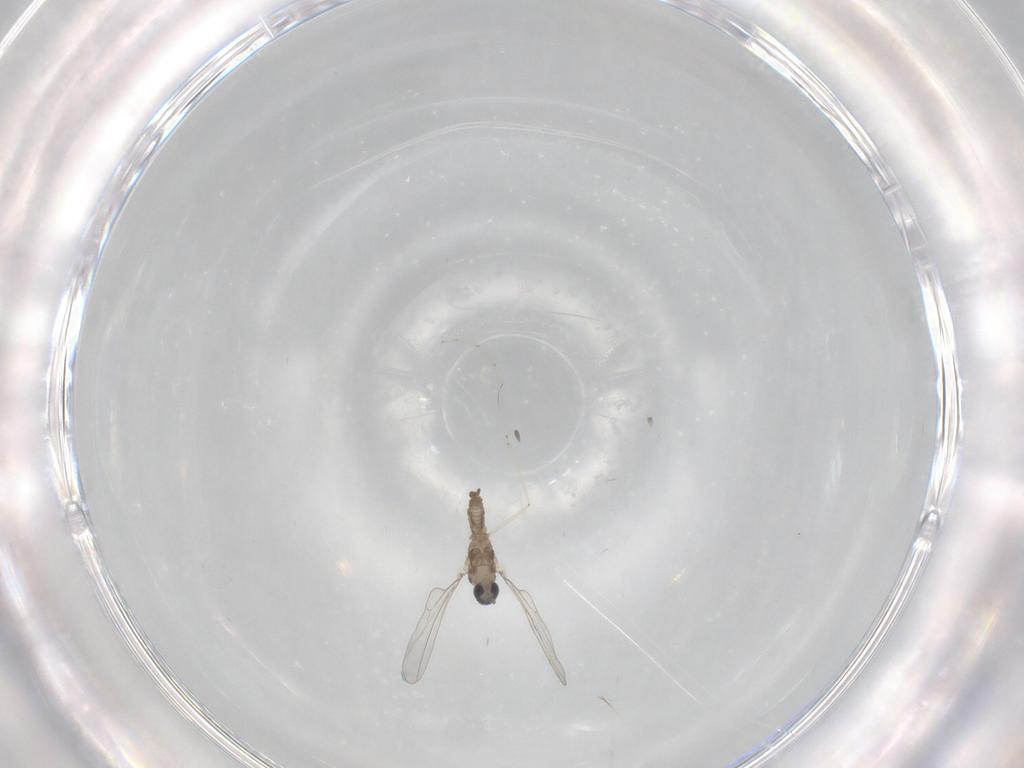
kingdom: Animalia
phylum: Arthropoda
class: Insecta
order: Diptera
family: Cecidomyiidae
